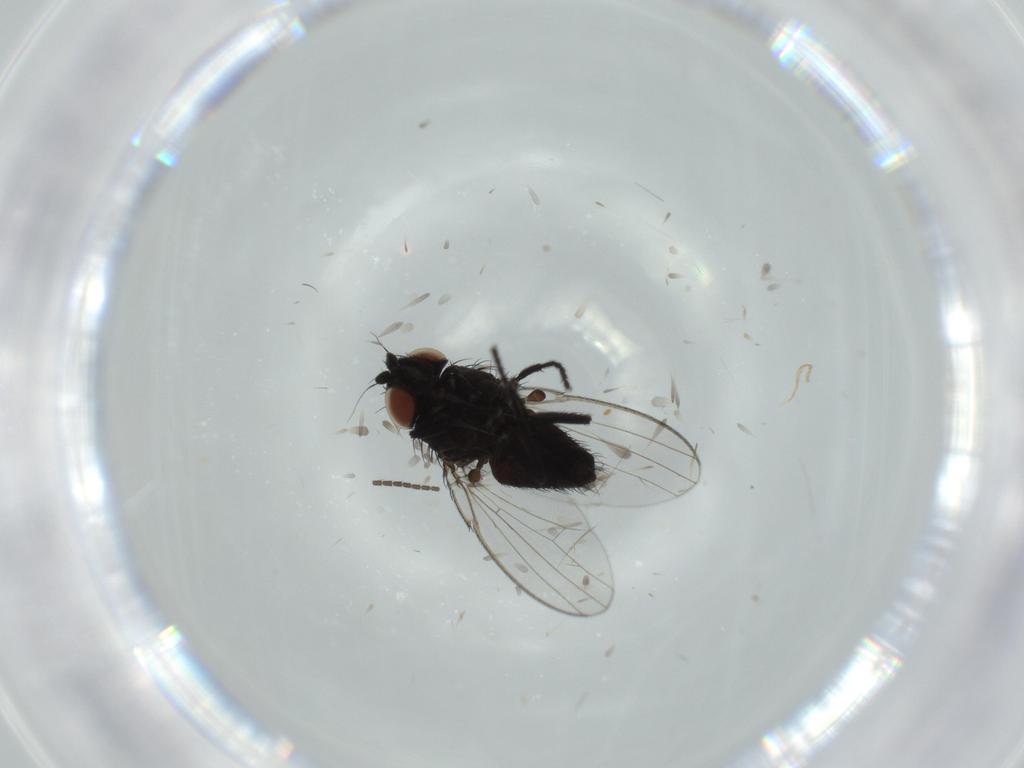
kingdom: Animalia
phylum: Arthropoda
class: Insecta
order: Diptera
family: Sciaridae
